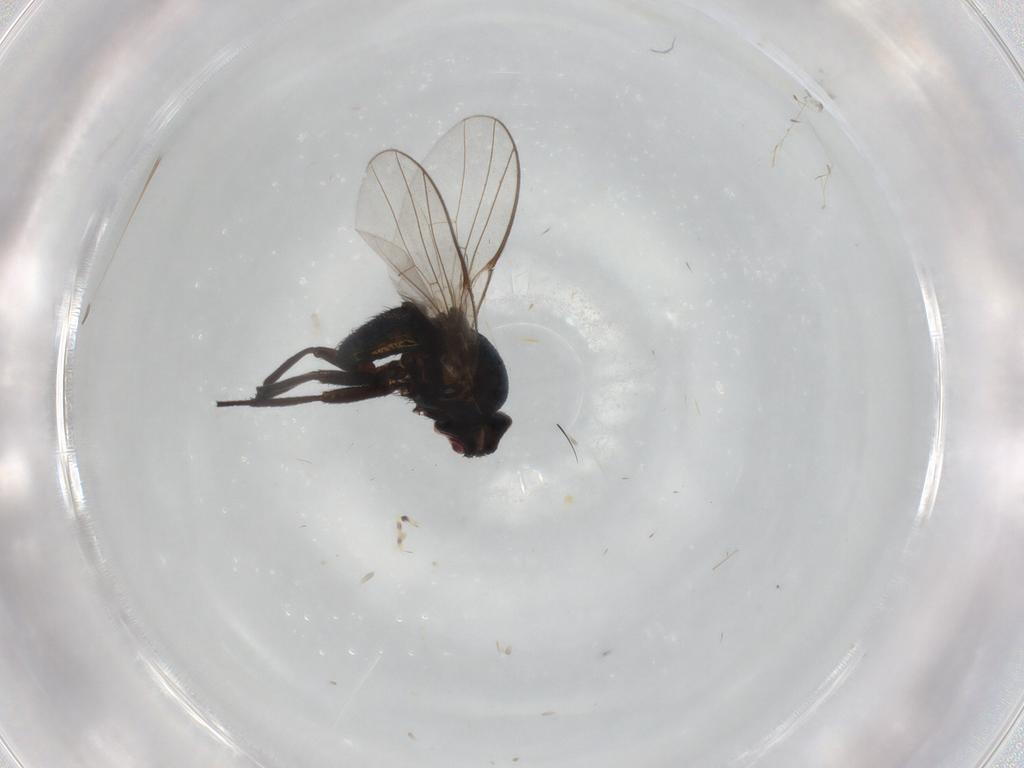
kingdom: Animalia
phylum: Arthropoda
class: Insecta
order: Diptera
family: Agromyzidae
